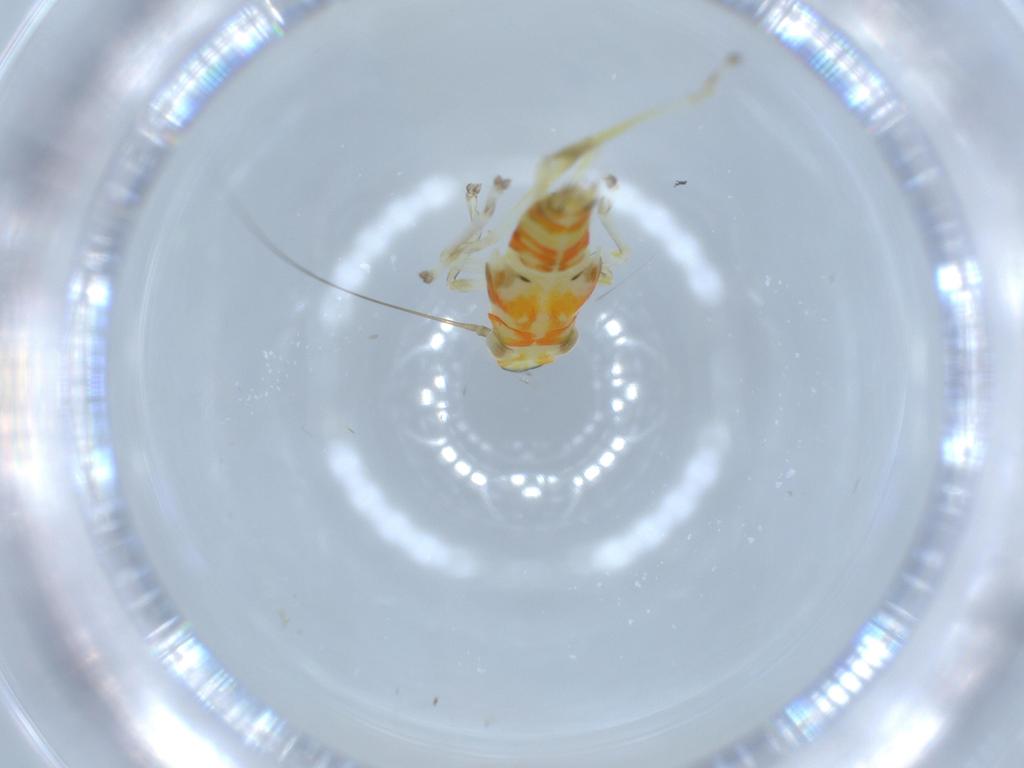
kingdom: Animalia
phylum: Arthropoda
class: Insecta
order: Hemiptera
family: Cicadellidae
